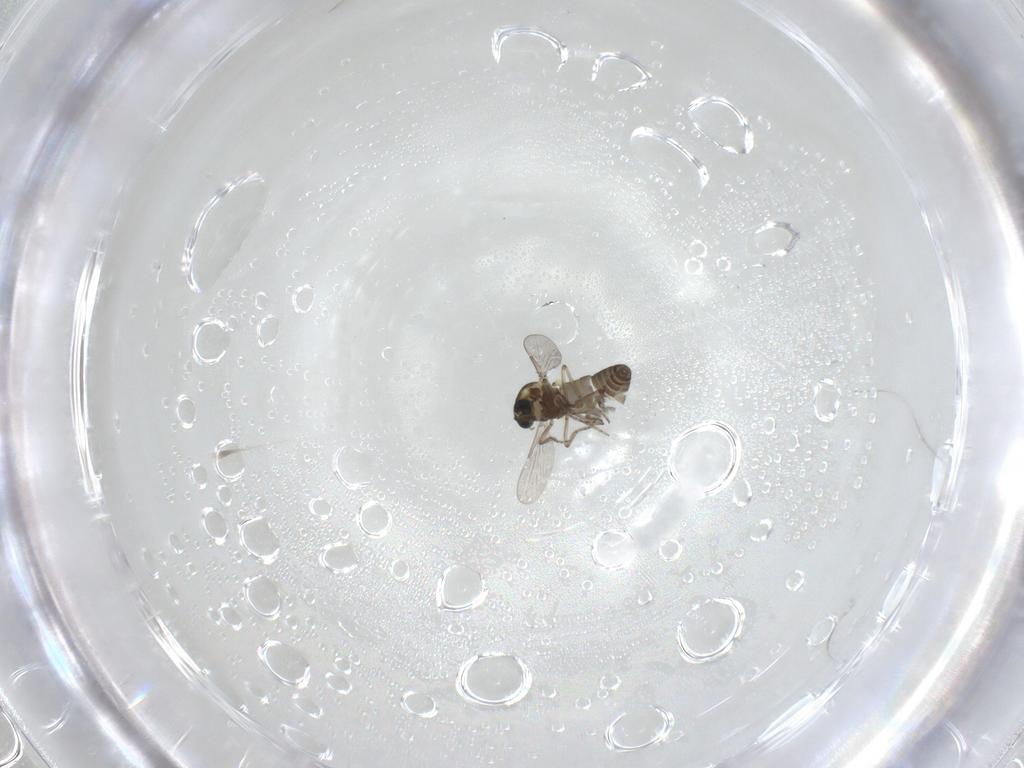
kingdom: Animalia
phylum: Arthropoda
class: Insecta
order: Diptera
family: Ceratopogonidae
